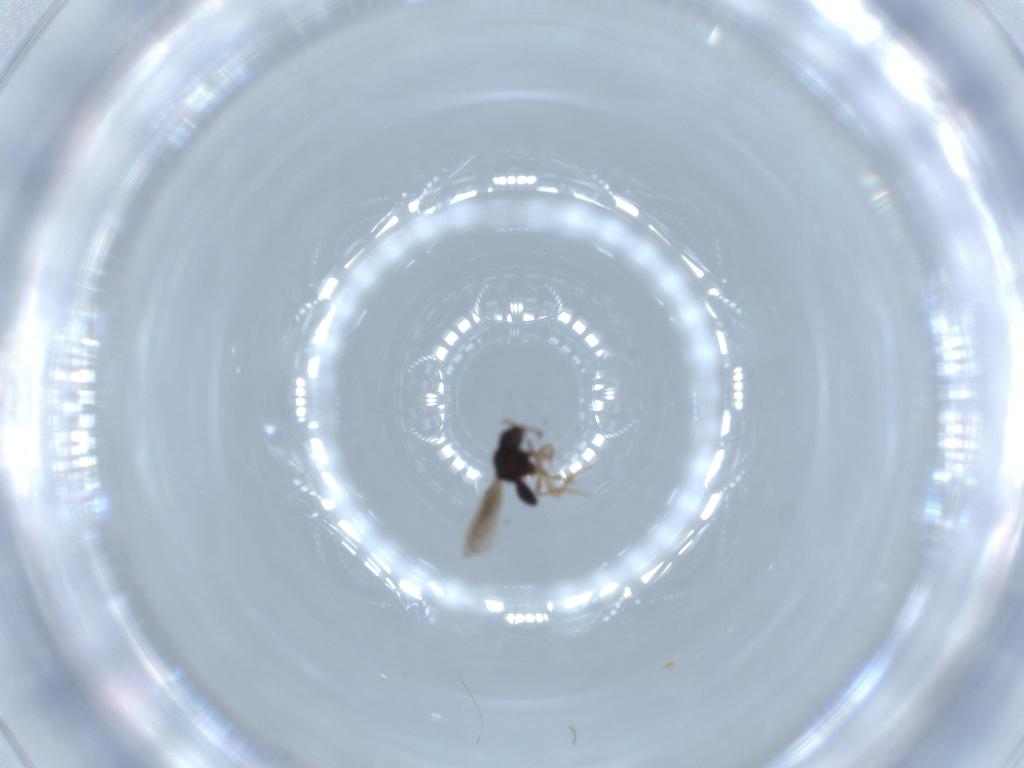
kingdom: Animalia
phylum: Arthropoda
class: Insecta
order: Hymenoptera
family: Scelionidae
